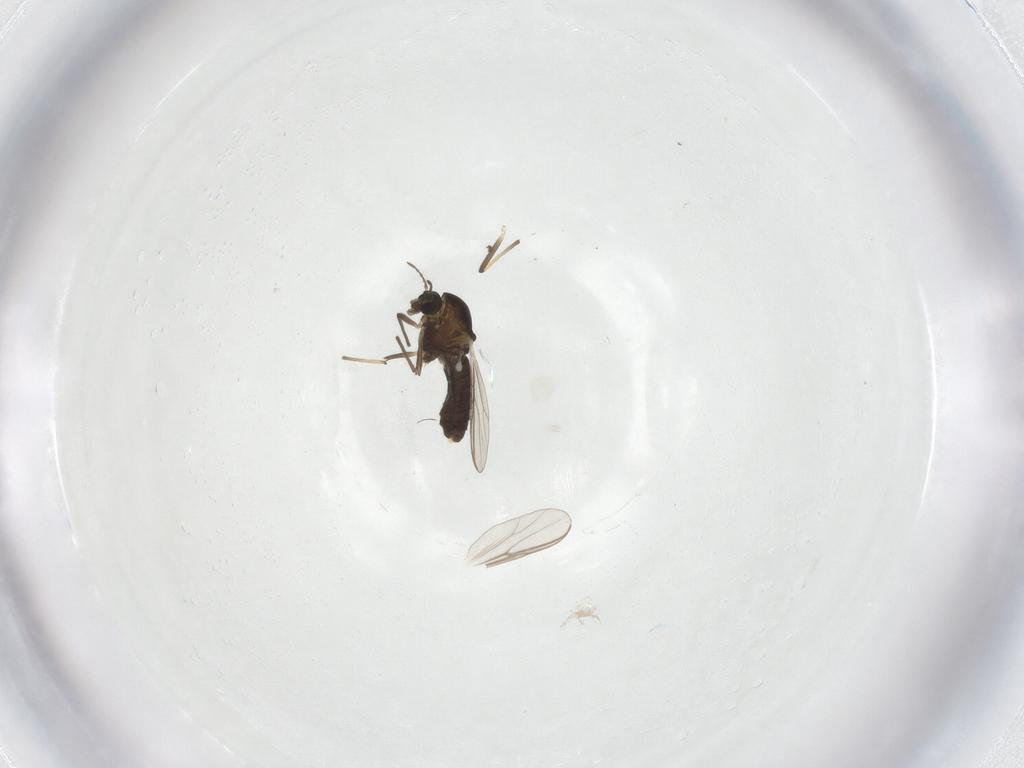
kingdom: Animalia
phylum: Arthropoda
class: Insecta
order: Diptera
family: Chironomidae
